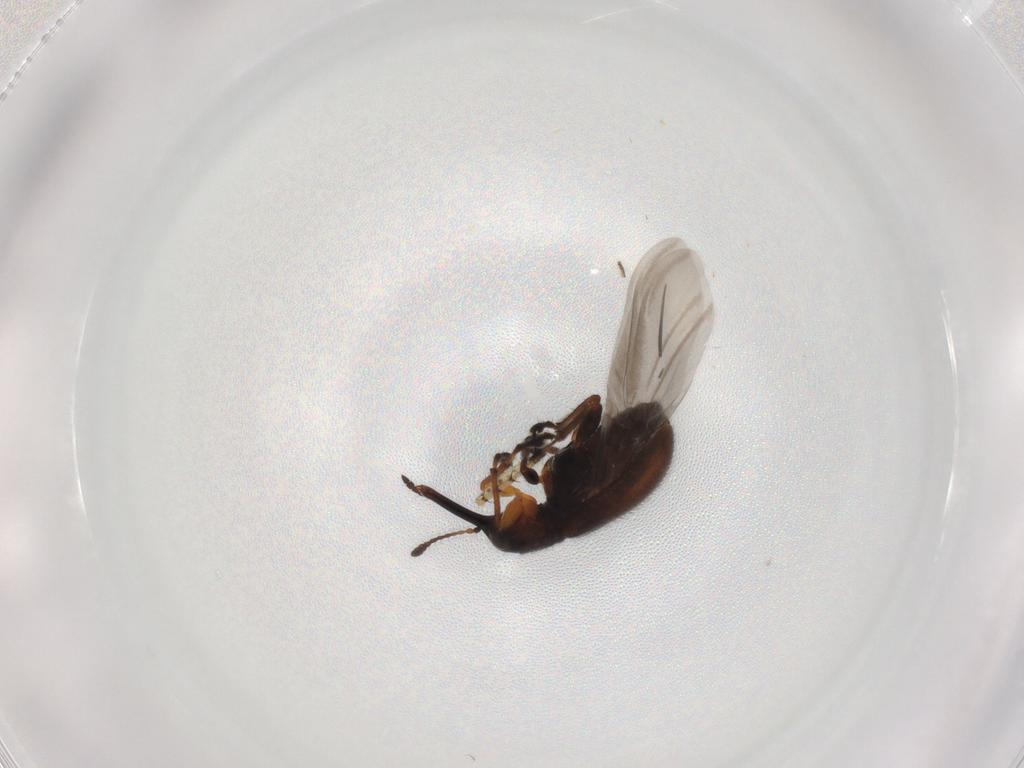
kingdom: Animalia
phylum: Arthropoda
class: Insecta
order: Coleoptera
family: Attelabidae
